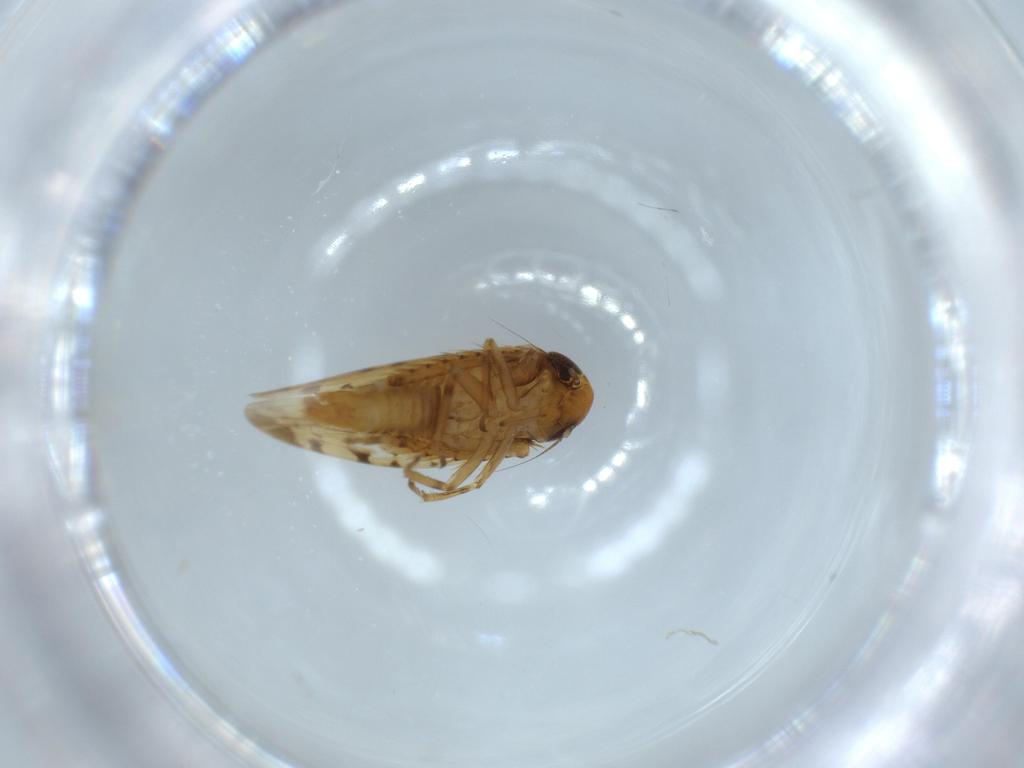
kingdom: Animalia
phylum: Arthropoda
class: Insecta
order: Hemiptera
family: Cicadellidae
